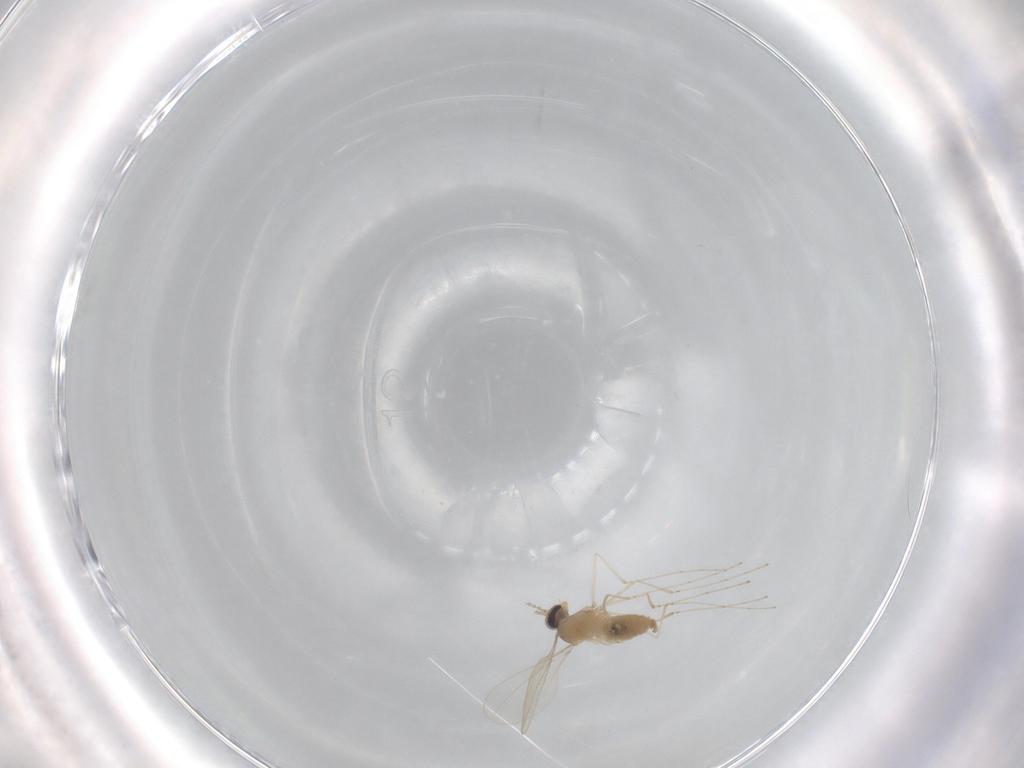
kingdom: Animalia
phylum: Arthropoda
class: Insecta
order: Diptera
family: Cecidomyiidae
